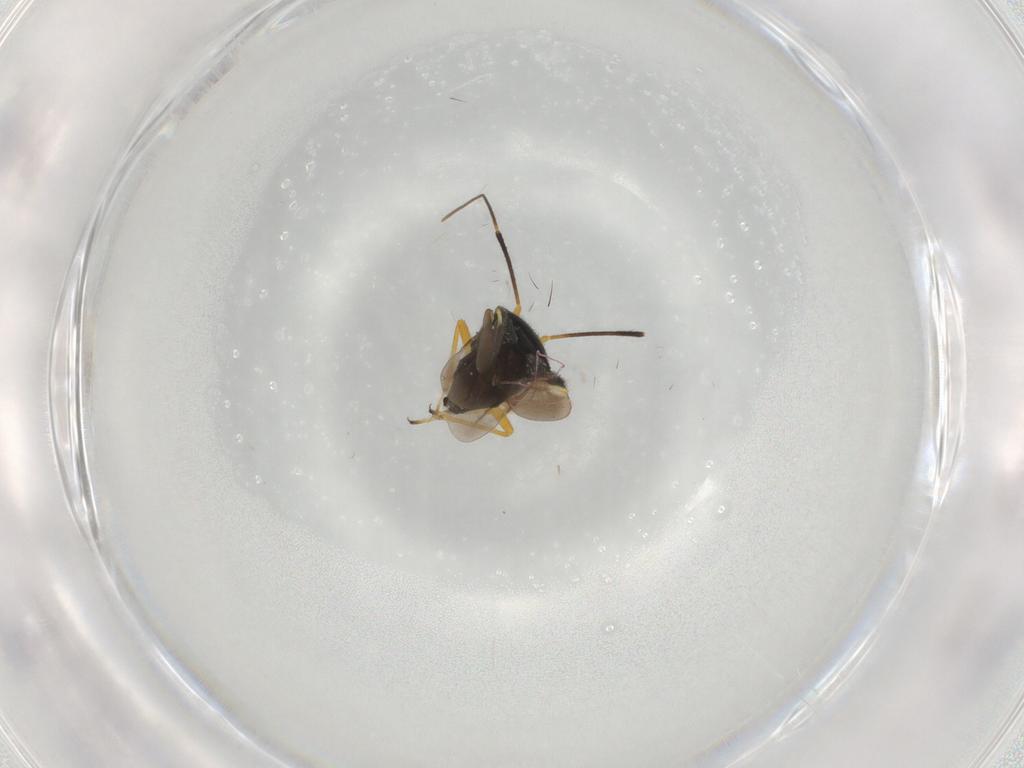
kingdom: Animalia
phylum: Arthropoda
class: Insecta
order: Hemiptera
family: Miridae
